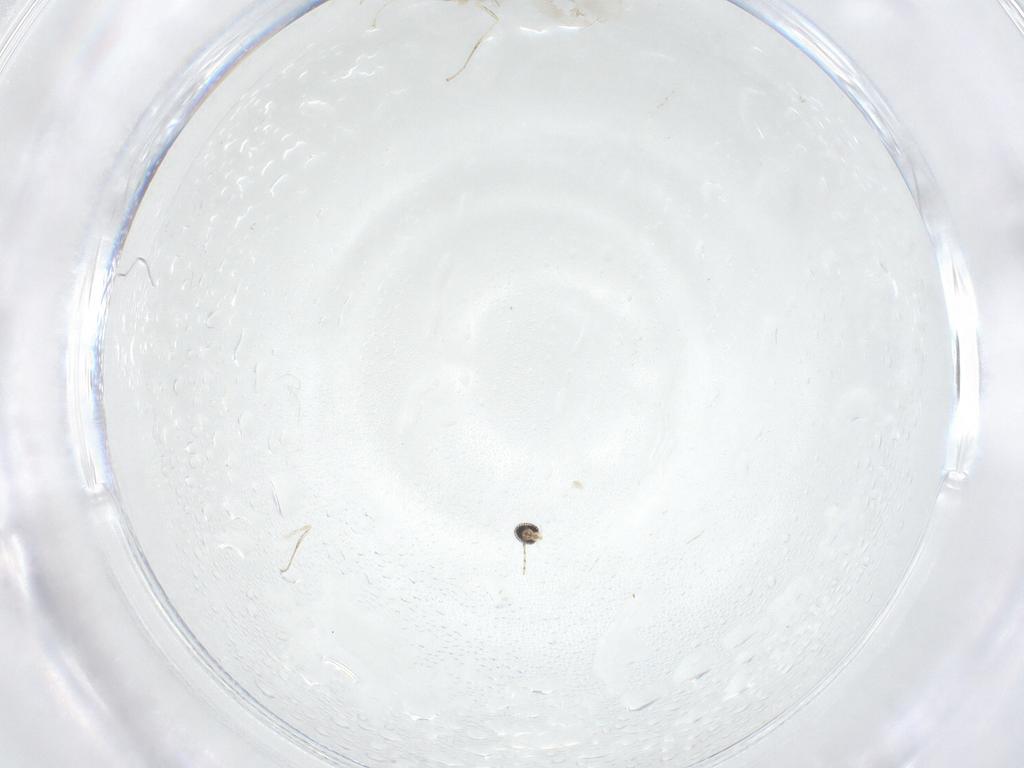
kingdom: Animalia
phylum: Arthropoda
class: Insecta
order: Diptera
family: Cecidomyiidae
